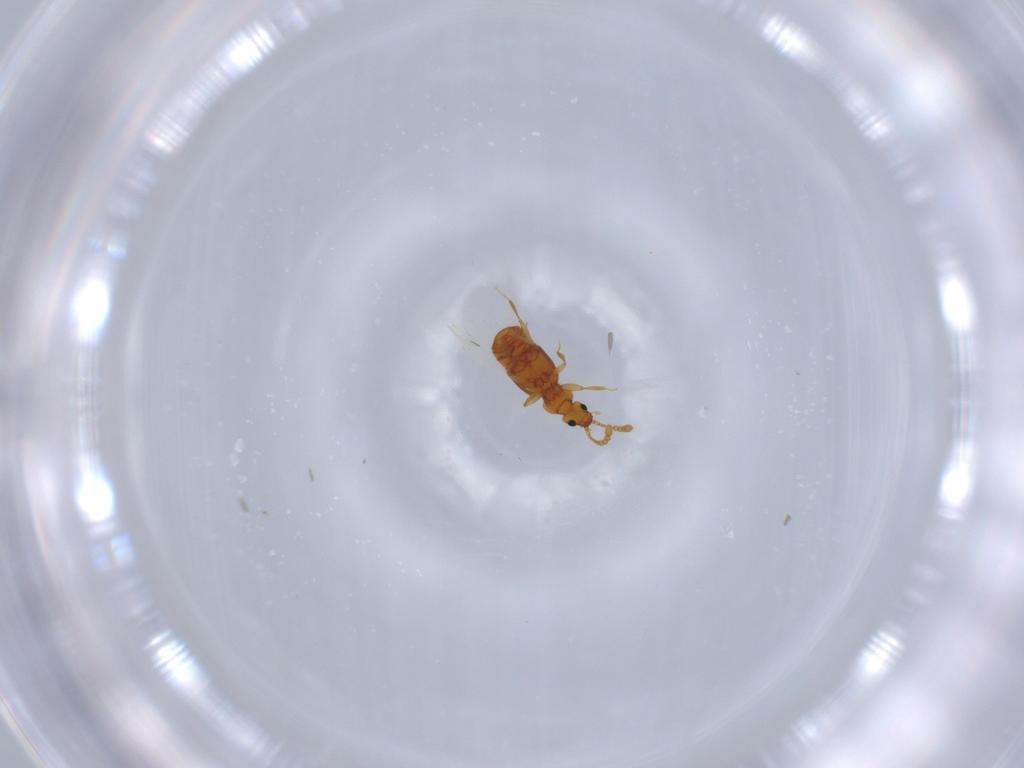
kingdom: Animalia
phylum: Arthropoda
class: Insecta
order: Coleoptera
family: Staphylinidae
